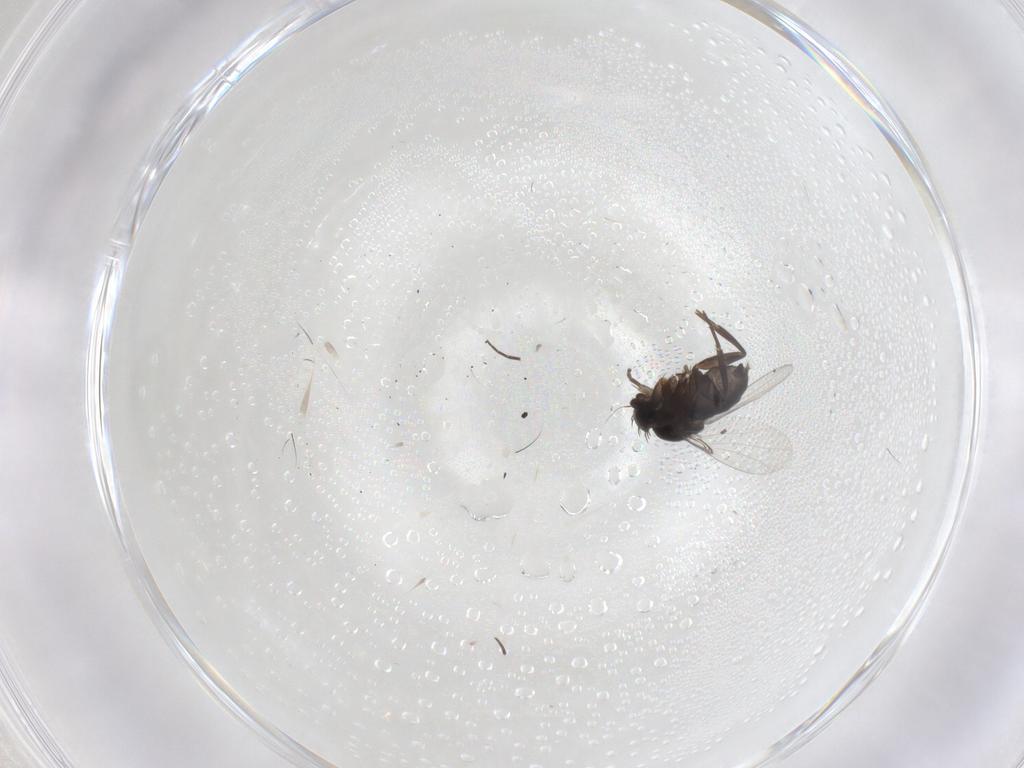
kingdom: Animalia
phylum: Arthropoda
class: Insecta
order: Diptera
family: Phoridae
